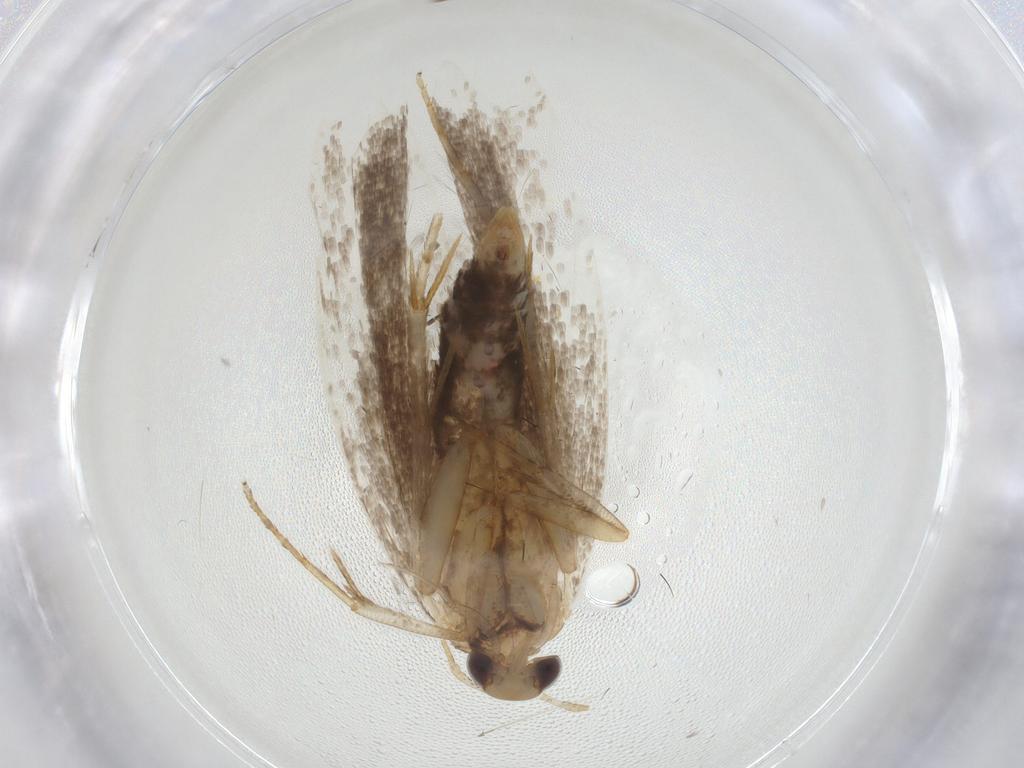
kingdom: Animalia
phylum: Arthropoda
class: Insecta
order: Lepidoptera
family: Gelechiidae
